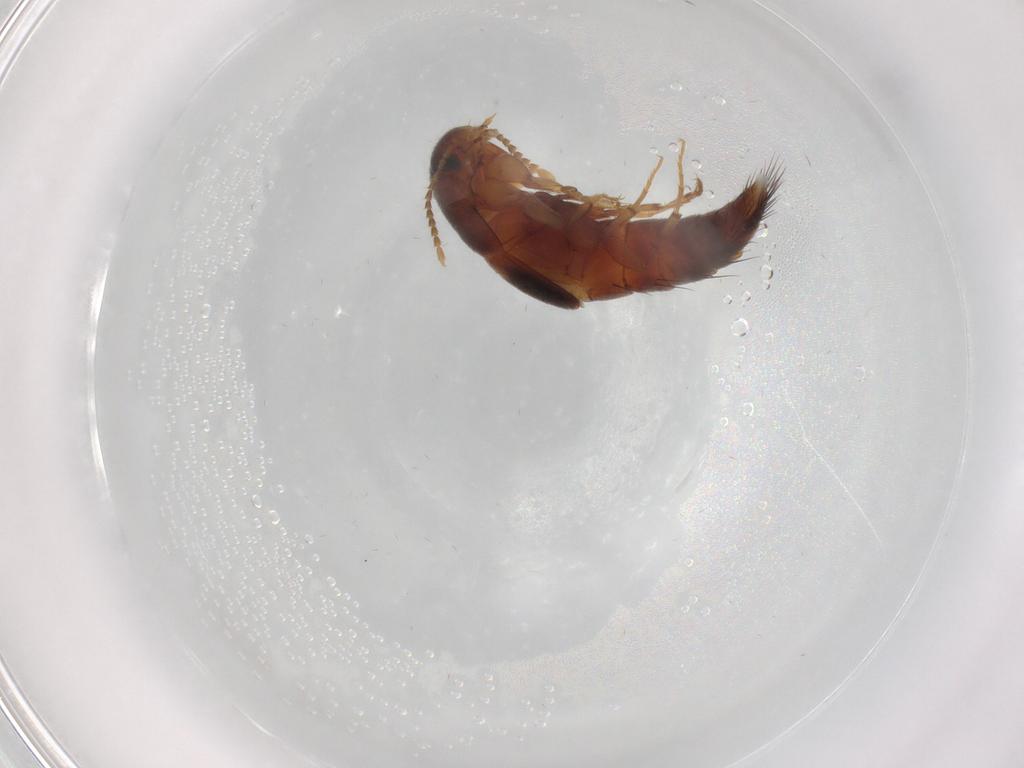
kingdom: Animalia
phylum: Arthropoda
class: Insecta
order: Coleoptera
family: Staphylinidae
